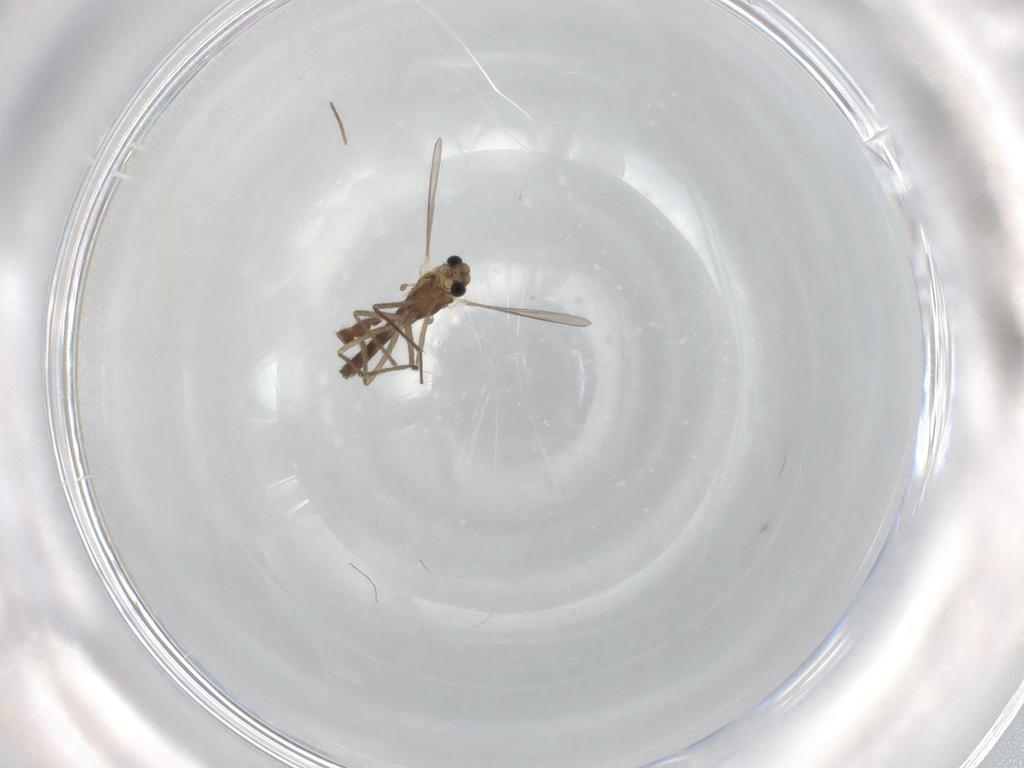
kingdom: Animalia
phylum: Arthropoda
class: Insecta
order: Diptera
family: Chironomidae
